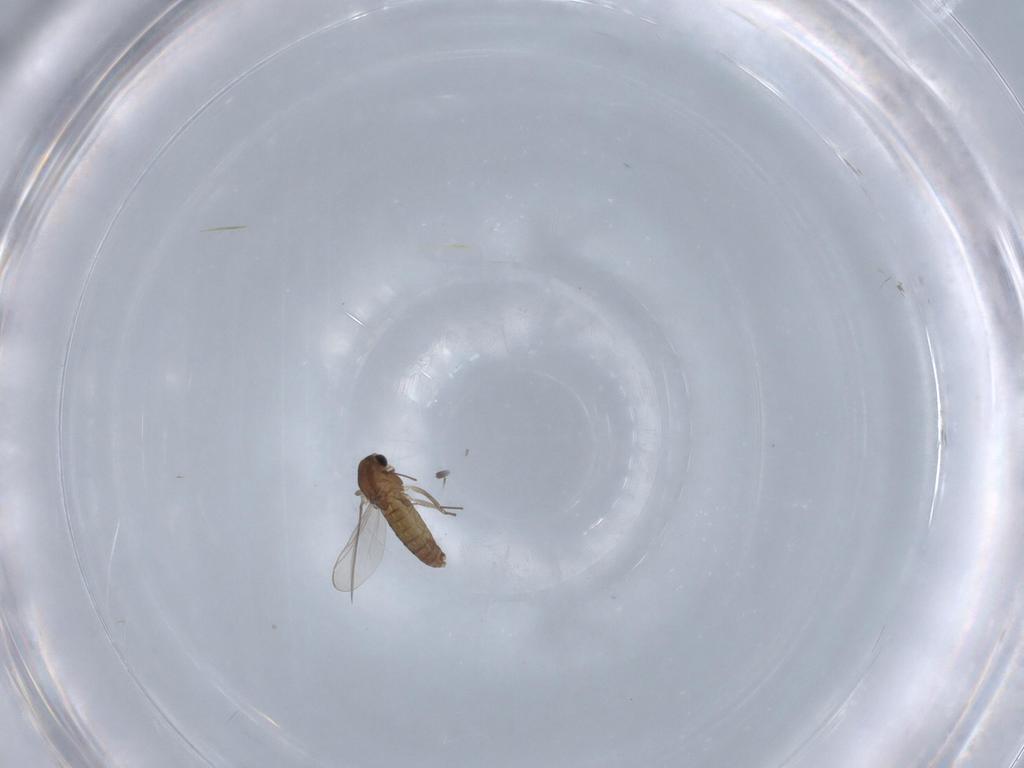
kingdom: Animalia
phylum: Arthropoda
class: Insecta
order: Diptera
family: Chironomidae
